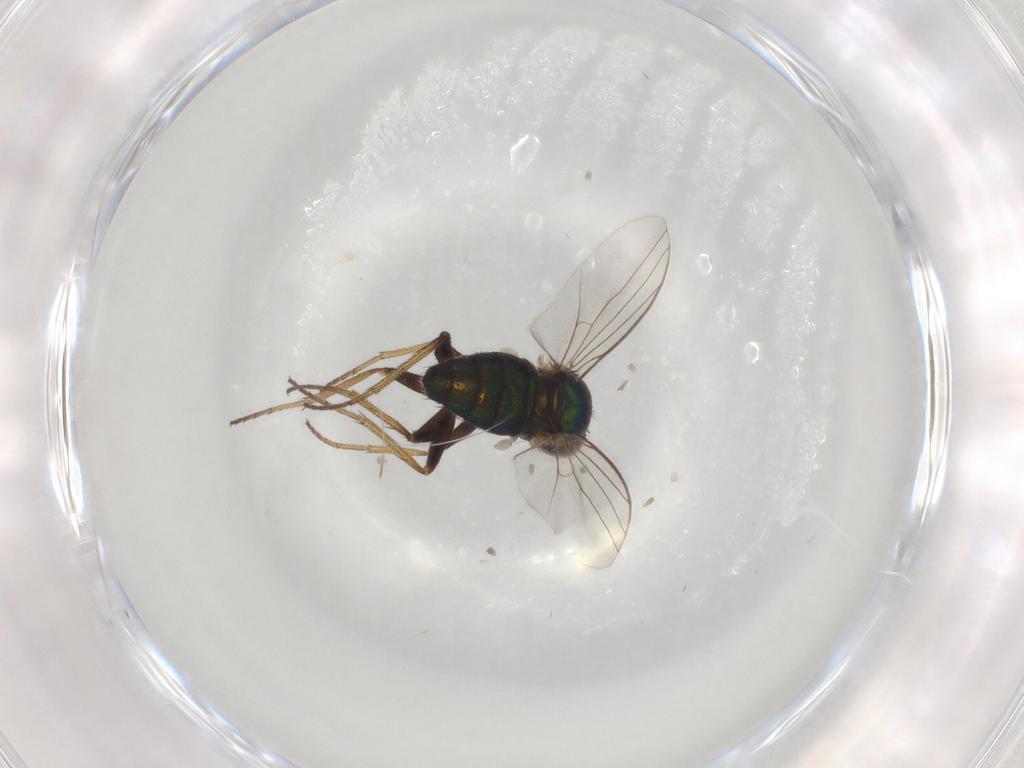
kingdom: Animalia
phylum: Arthropoda
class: Insecta
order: Diptera
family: Dolichopodidae
